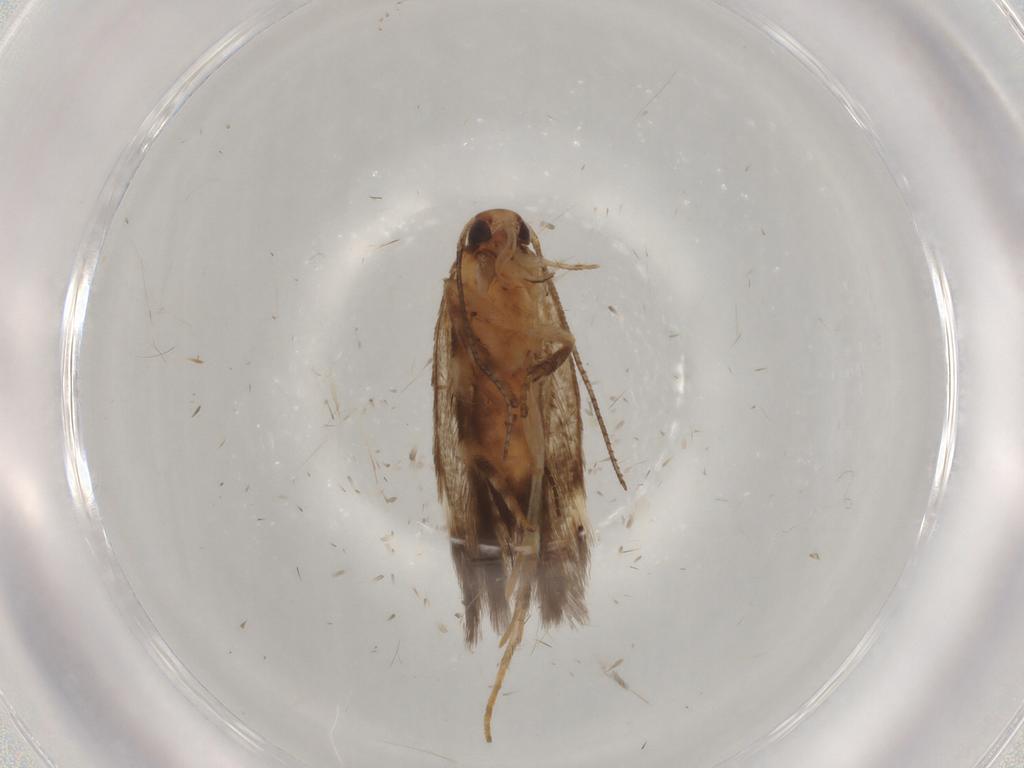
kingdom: Animalia
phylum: Arthropoda
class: Insecta
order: Lepidoptera
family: Gelechiidae
